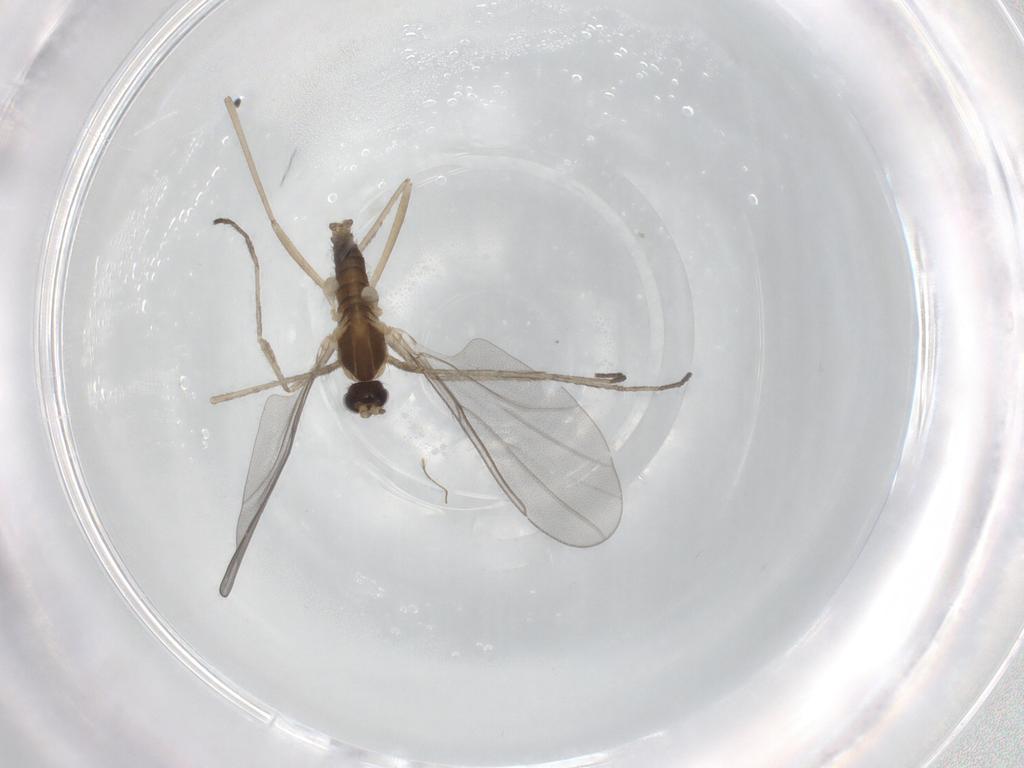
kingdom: Animalia
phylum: Arthropoda
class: Insecta
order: Diptera
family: Cecidomyiidae
